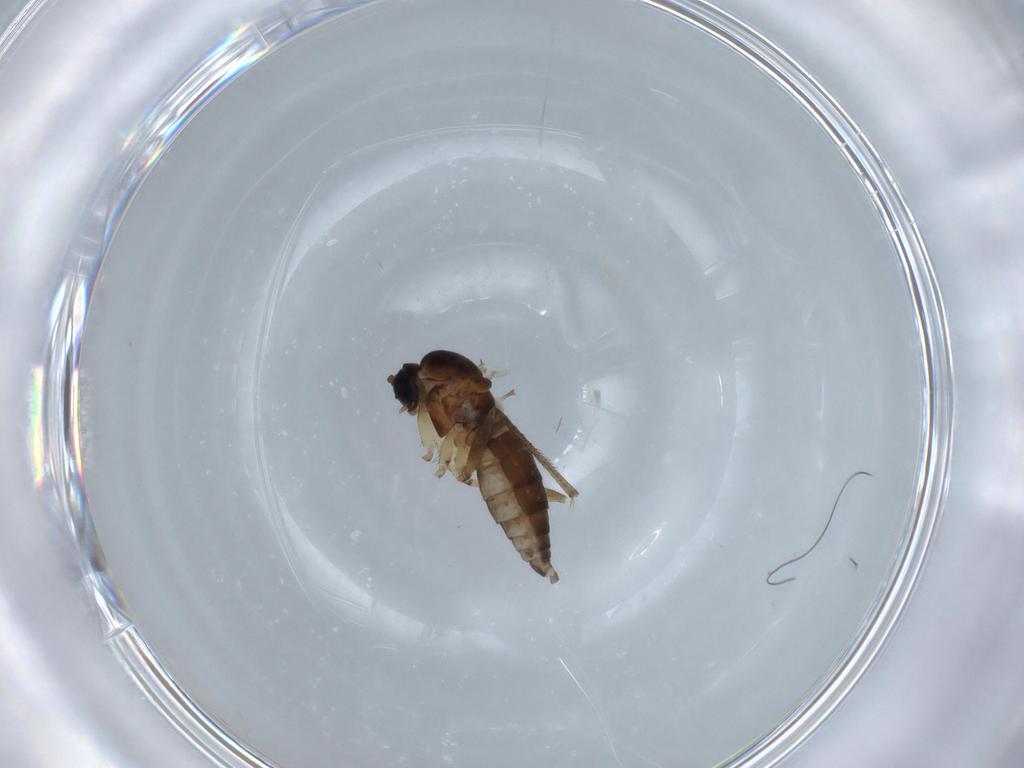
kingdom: Animalia
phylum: Arthropoda
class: Insecta
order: Diptera
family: Sciaridae
